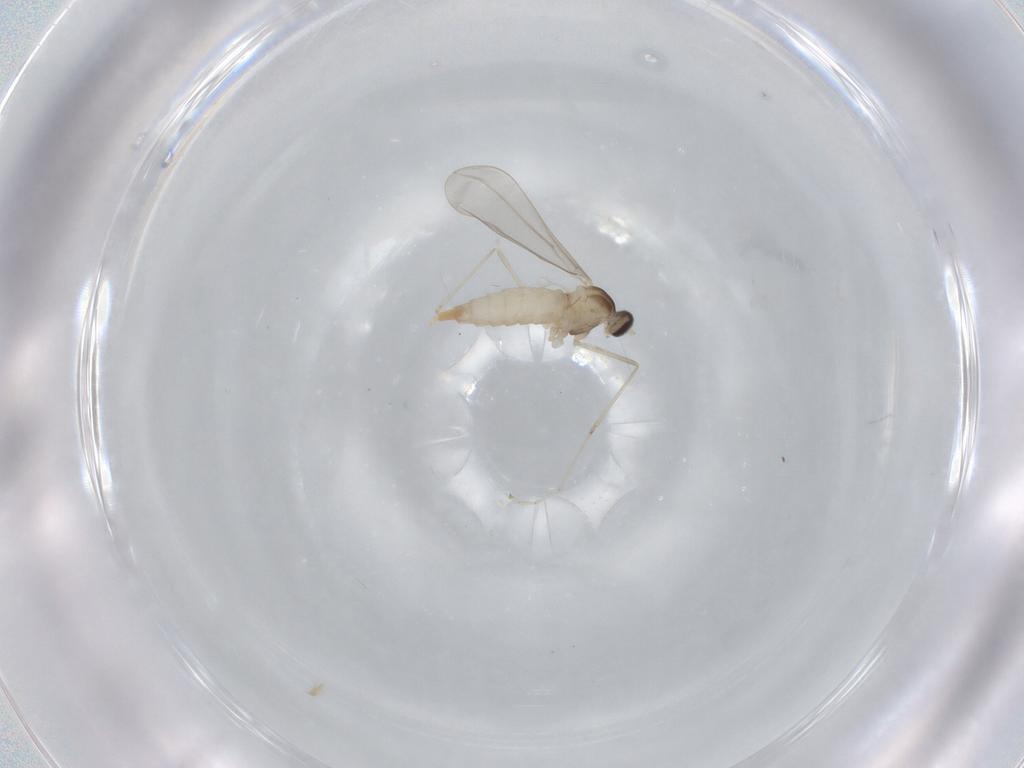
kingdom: Animalia
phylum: Arthropoda
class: Insecta
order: Diptera
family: Cecidomyiidae
